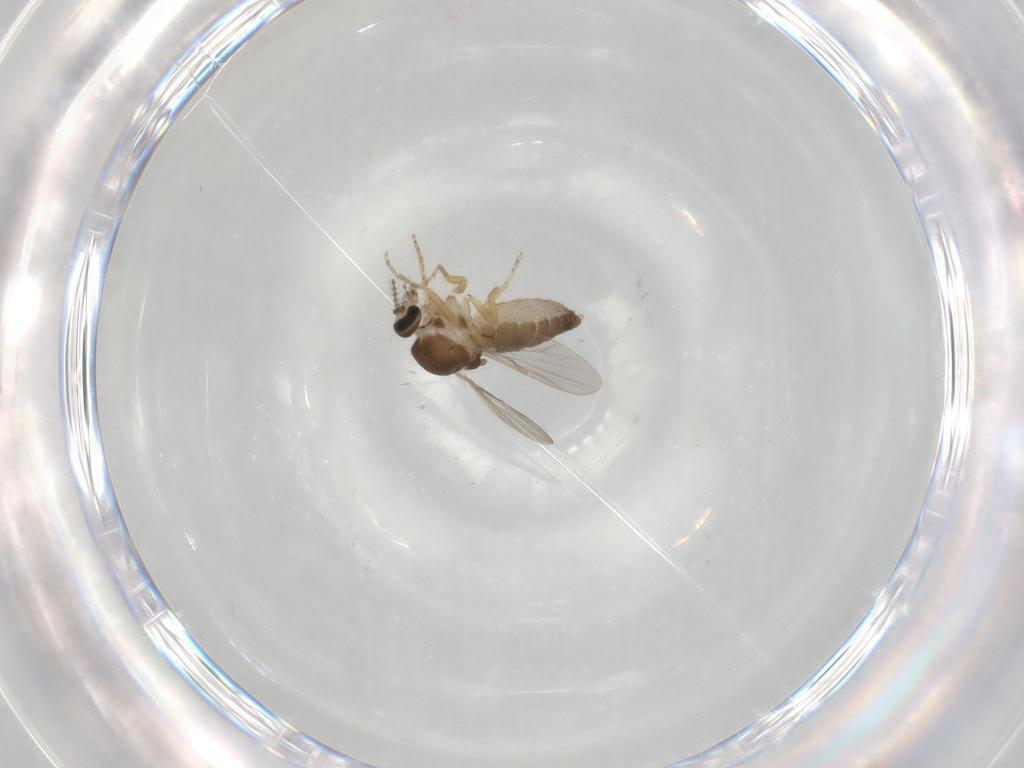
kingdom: Animalia
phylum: Arthropoda
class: Insecta
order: Diptera
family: Ceratopogonidae
